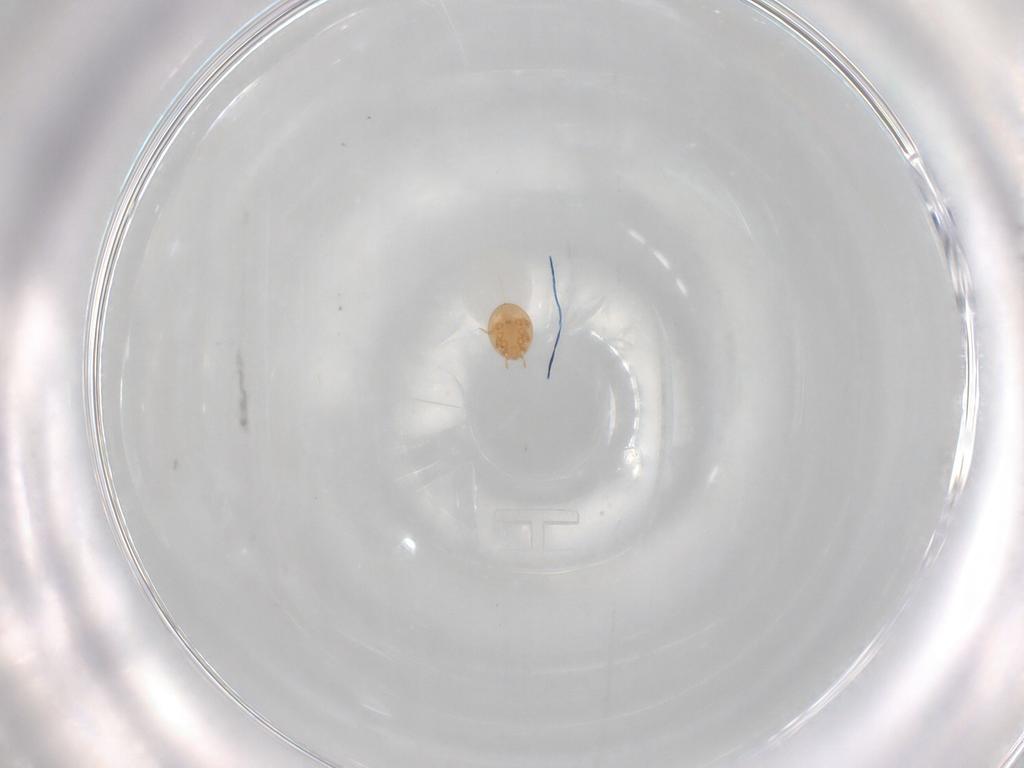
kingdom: Animalia
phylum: Arthropoda
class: Arachnida
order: Mesostigmata
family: Trematuridae
